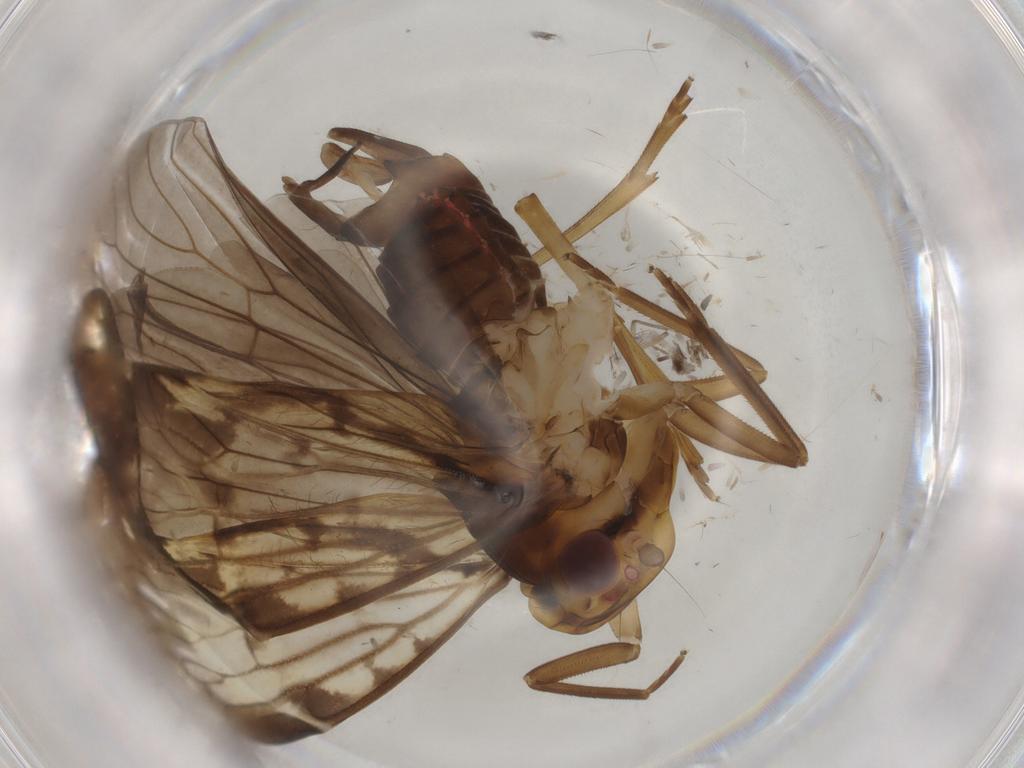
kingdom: Animalia
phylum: Arthropoda
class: Insecta
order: Hemiptera
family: Cixiidae
